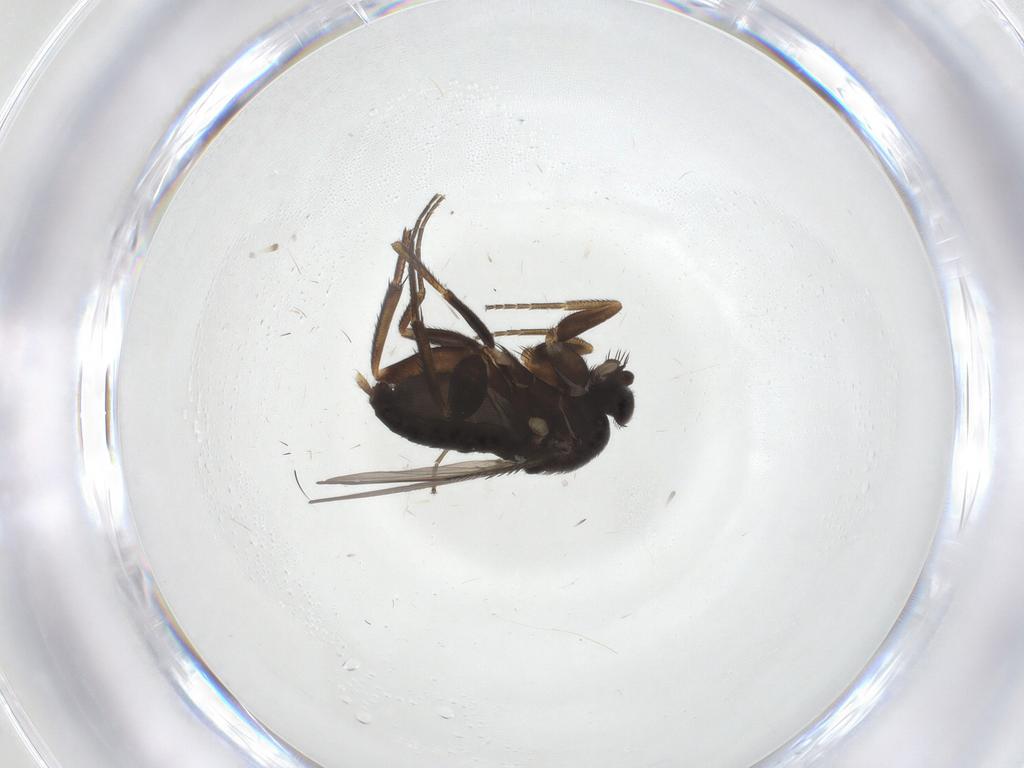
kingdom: Animalia
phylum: Arthropoda
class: Insecta
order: Diptera
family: Phoridae
